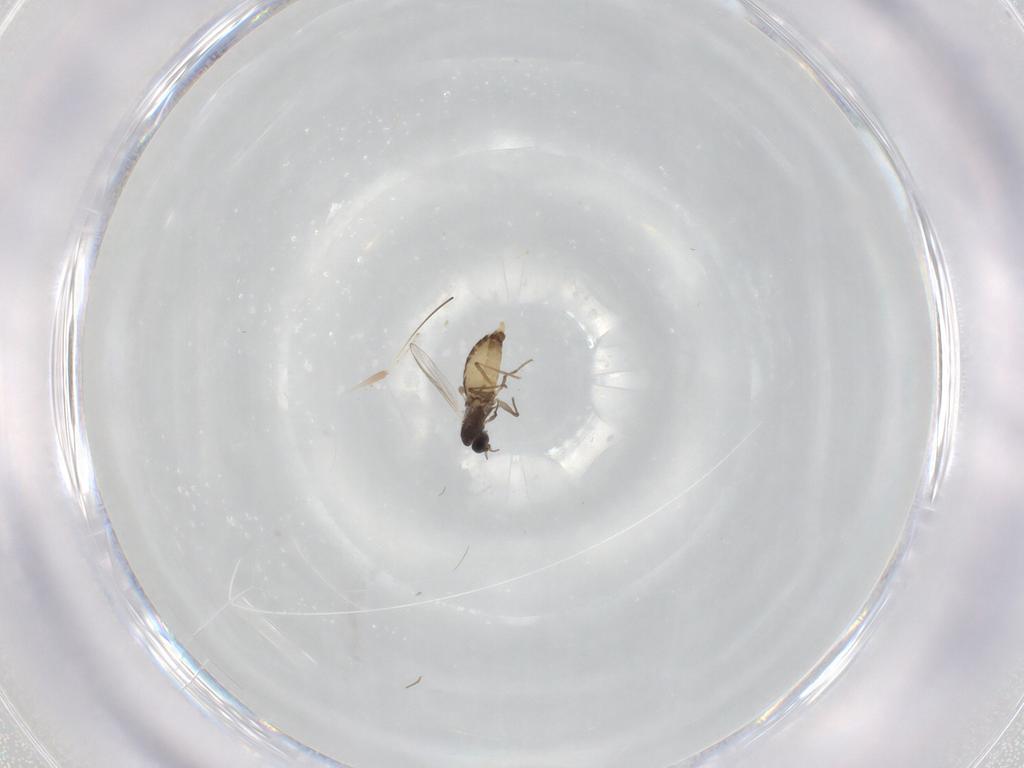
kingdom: Animalia
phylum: Arthropoda
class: Insecta
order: Diptera
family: Chironomidae
